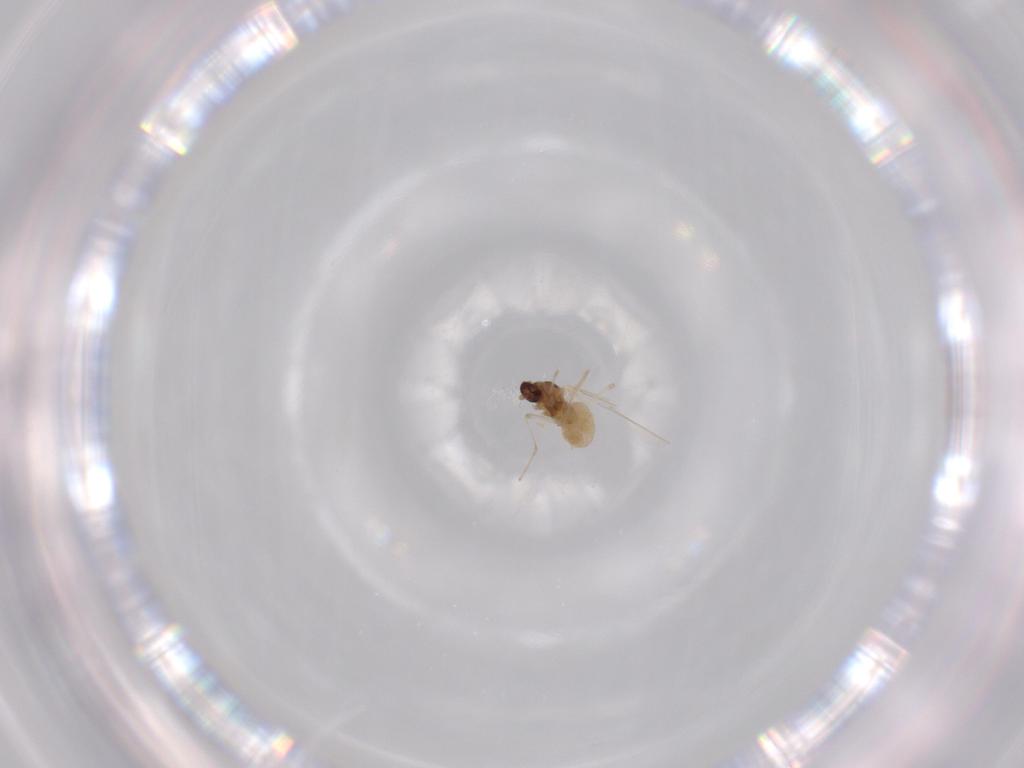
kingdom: Animalia
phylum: Arthropoda
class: Insecta
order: Diptera
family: Cecidomyiidae
